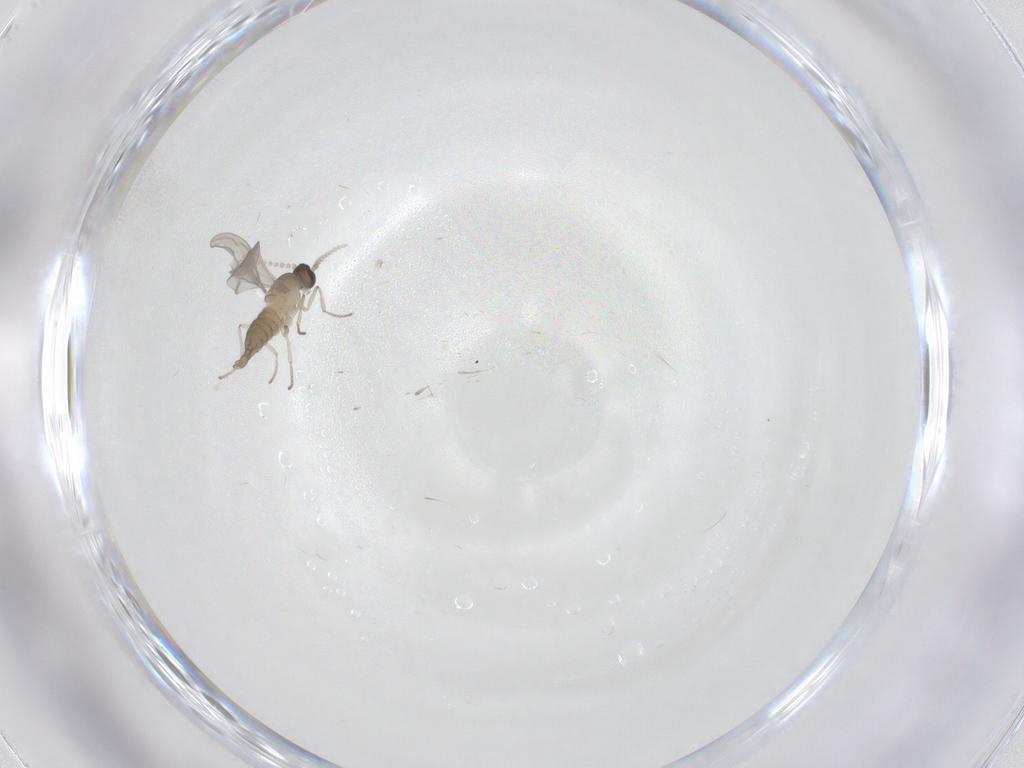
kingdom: Animalia
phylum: Arthropoda
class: Insecta
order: Diptera
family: Cecidomyiidae
